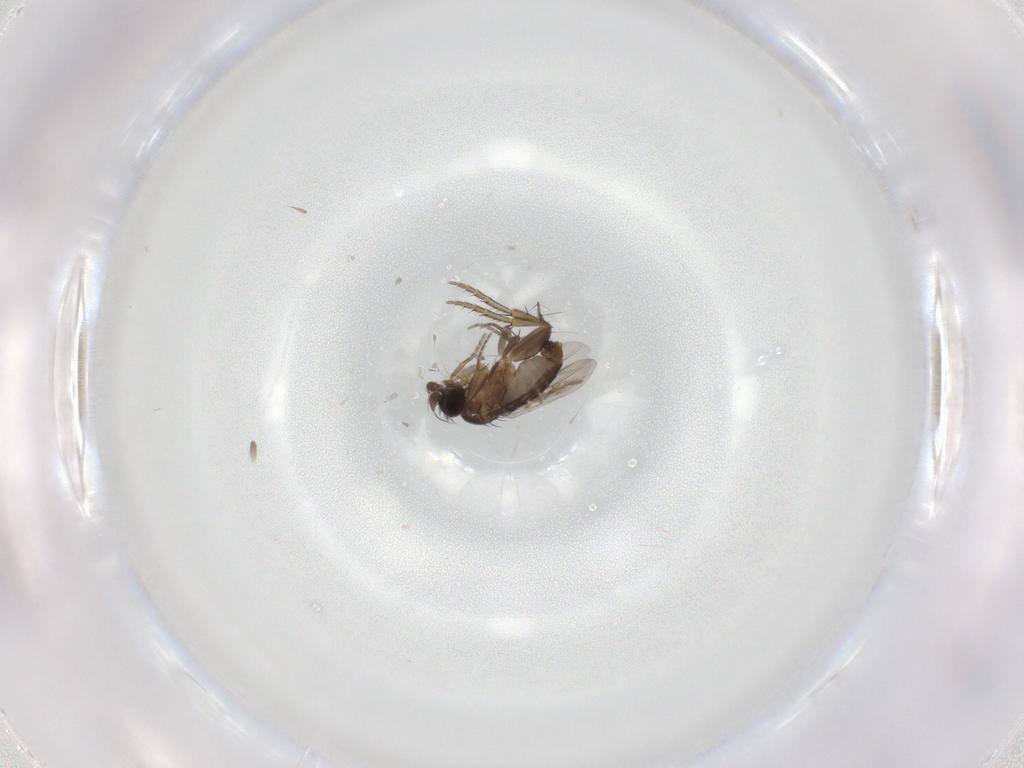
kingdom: Animalia
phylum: Arthropoda
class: Insecta
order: Diptera
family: Phoridae
